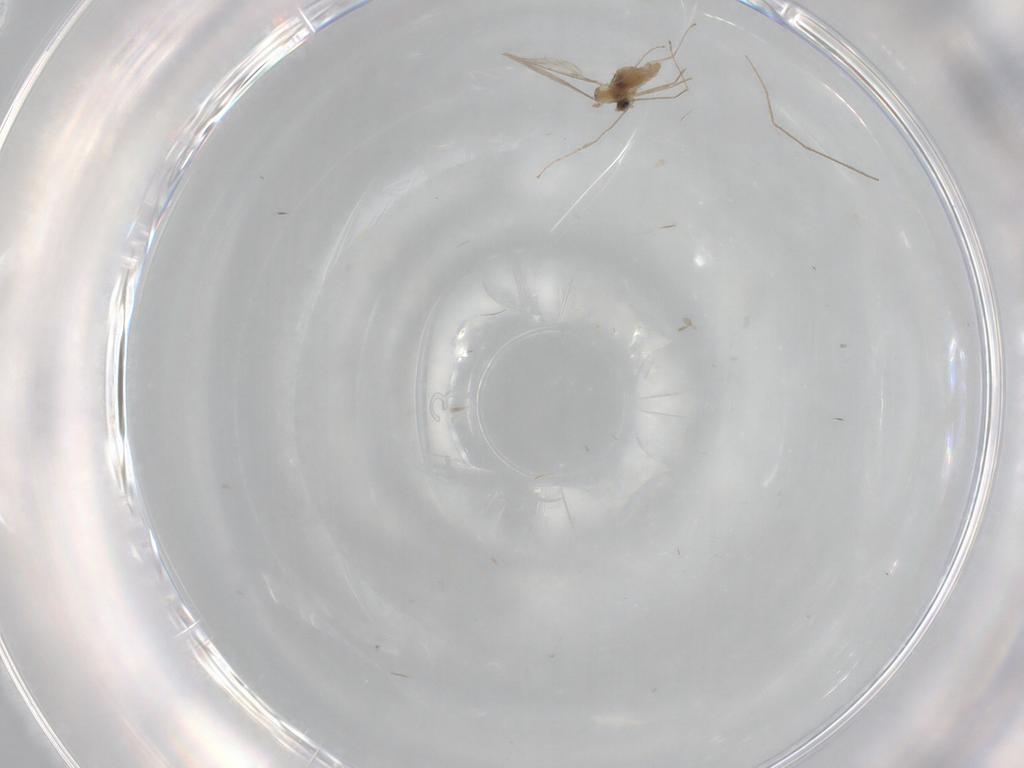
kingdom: Animalia
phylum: Arthropoda
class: Insecta
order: Diptera
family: Cecidomyiidae
